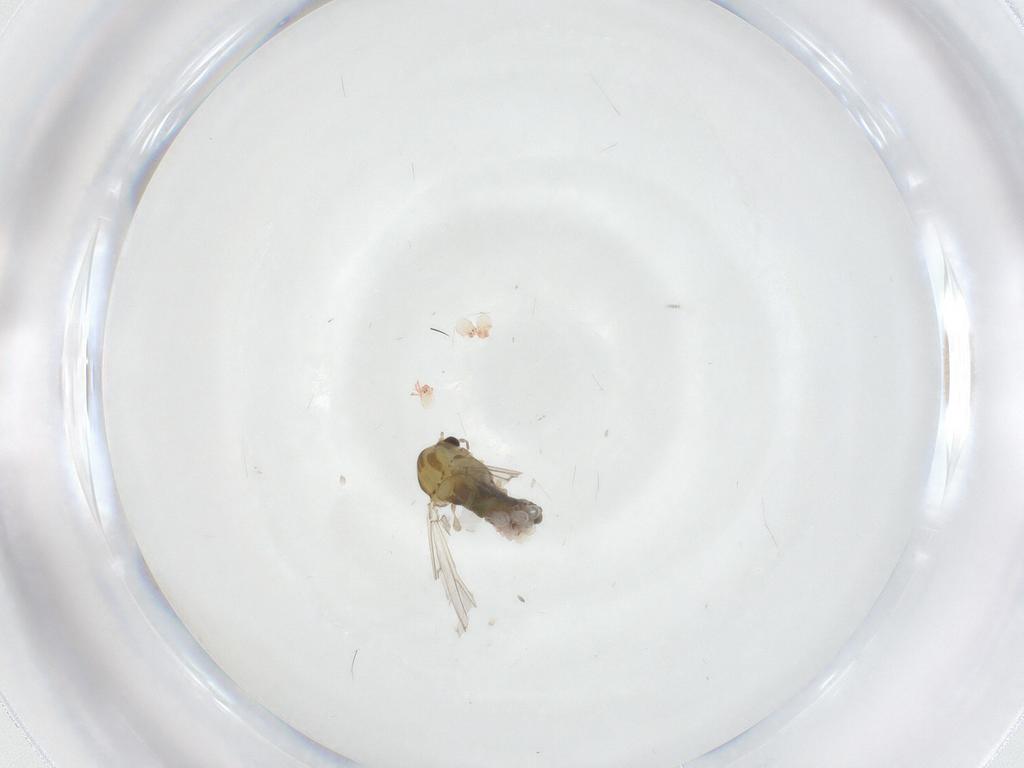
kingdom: Animalia
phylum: Arthropoda
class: Insecta
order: Diptera
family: Chironomidae
